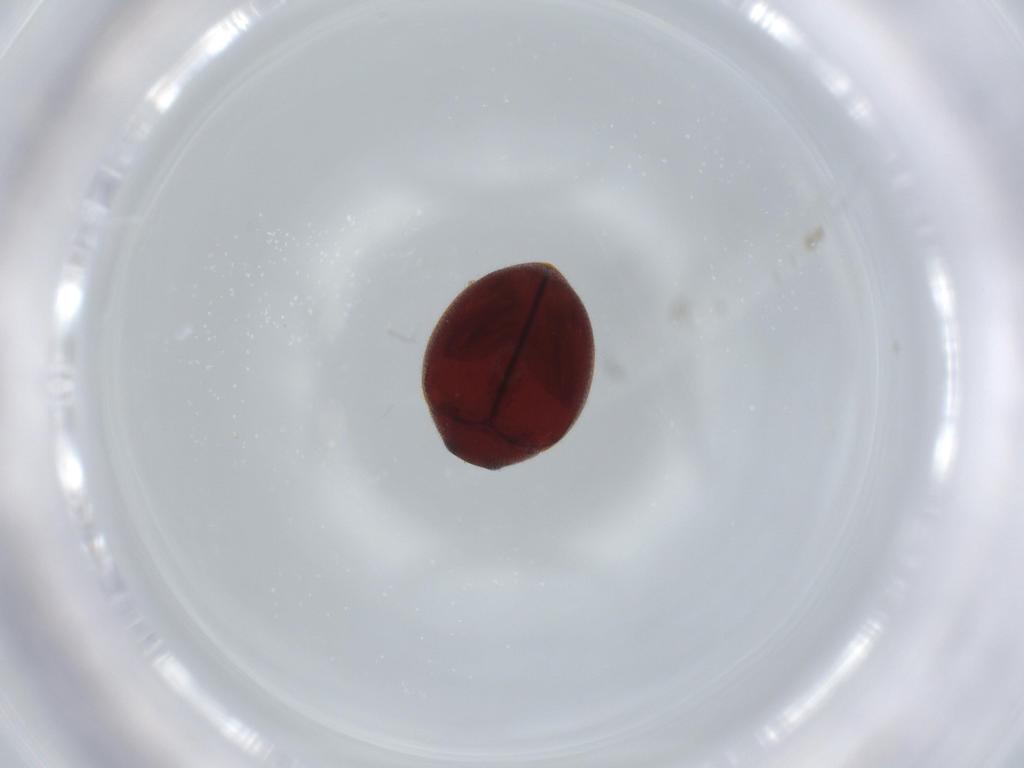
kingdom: Animalia
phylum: Arthropoda
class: Insecta
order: Coleoptera
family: Coccinellidae
